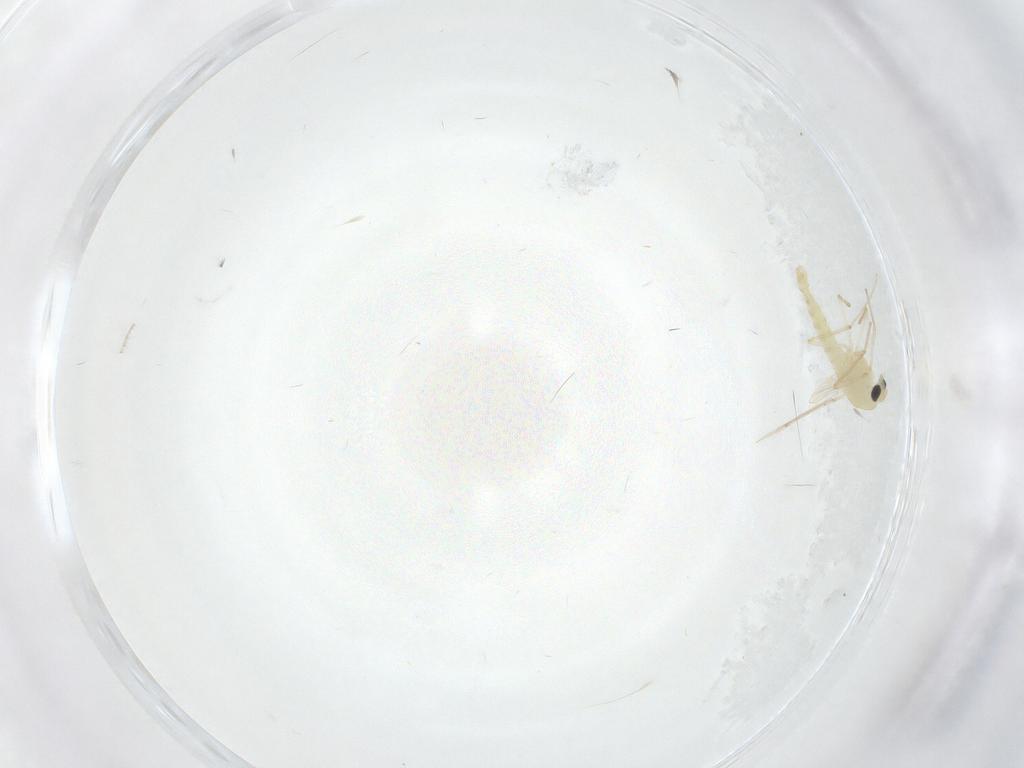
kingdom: Animalia
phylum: Arthropoda
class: Insecta
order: Diptera
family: Chironomidae
